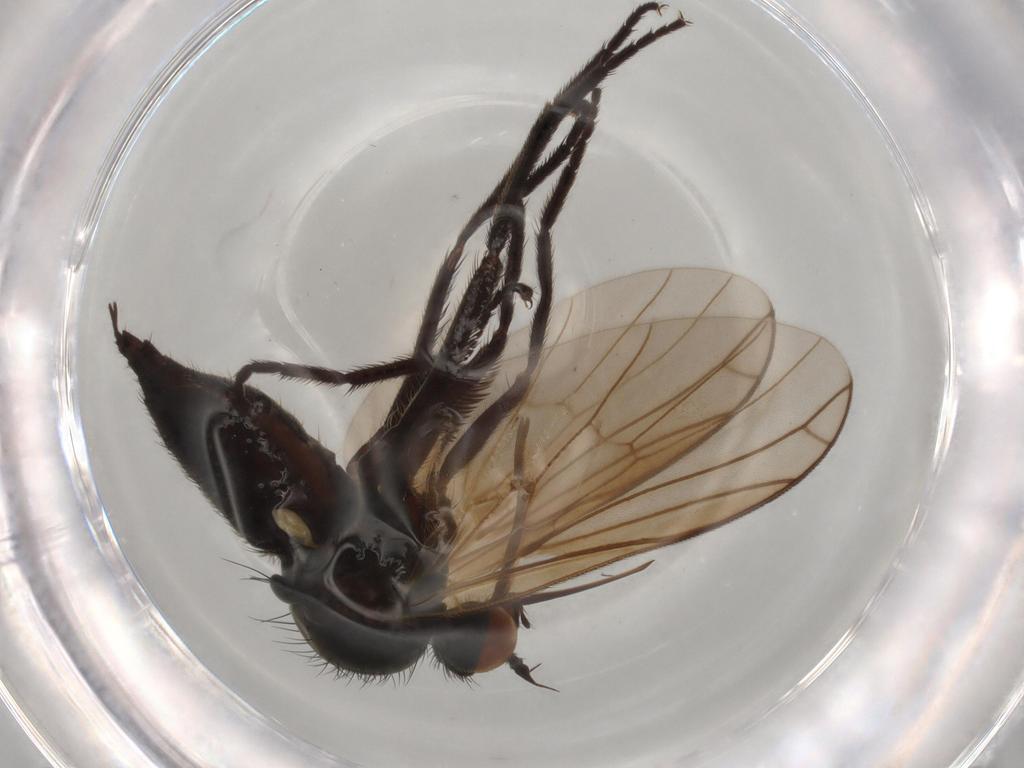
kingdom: Animalia
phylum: Arthropoda
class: Insecta
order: Diptera
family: Empididae
